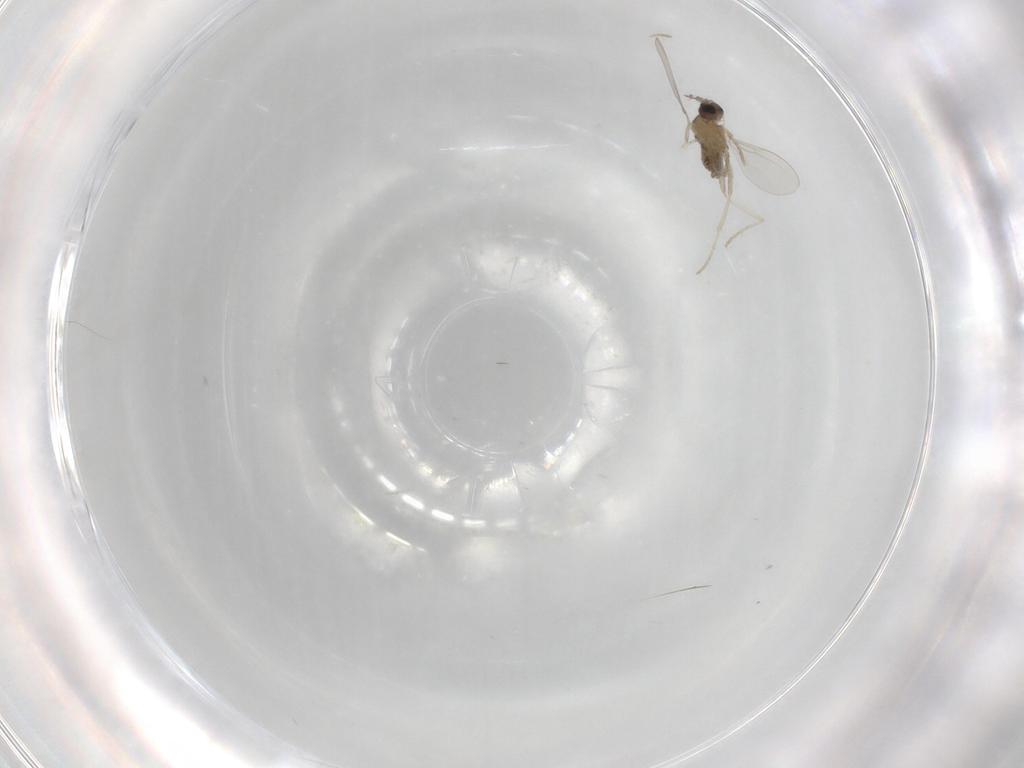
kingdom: Animalia
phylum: Arthropoda
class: Insecta
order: Diptera
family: Cecidomyiidae
